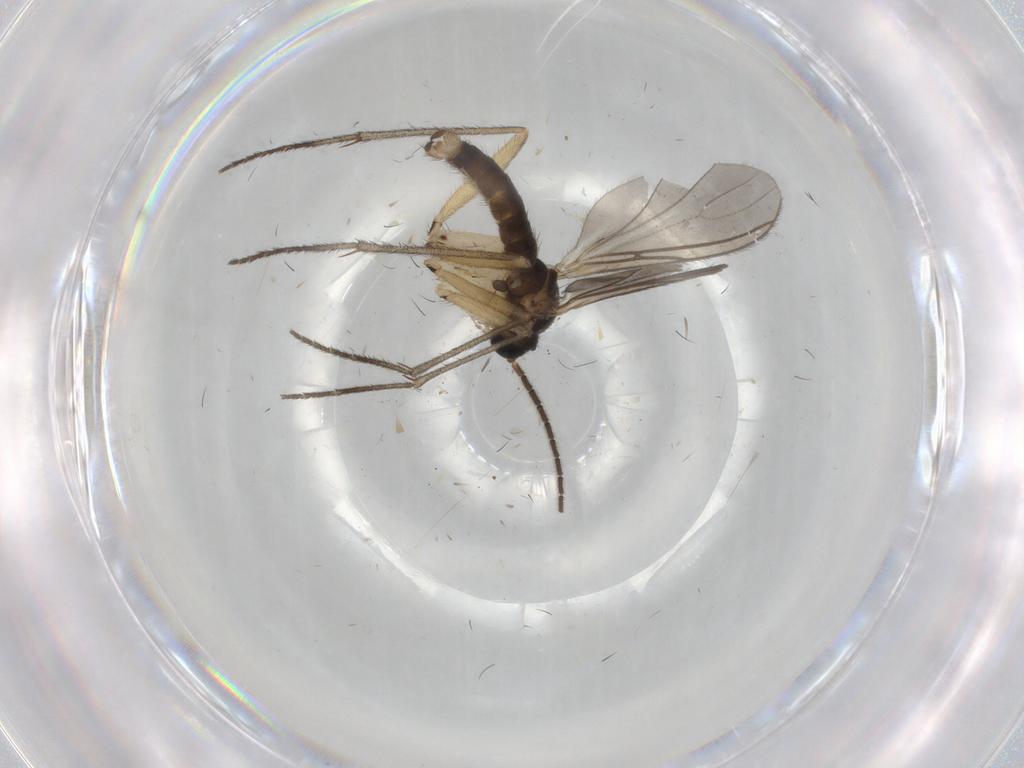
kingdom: Animalia
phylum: Arthropoda
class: Insecta
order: Diptera
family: Sciaridae
